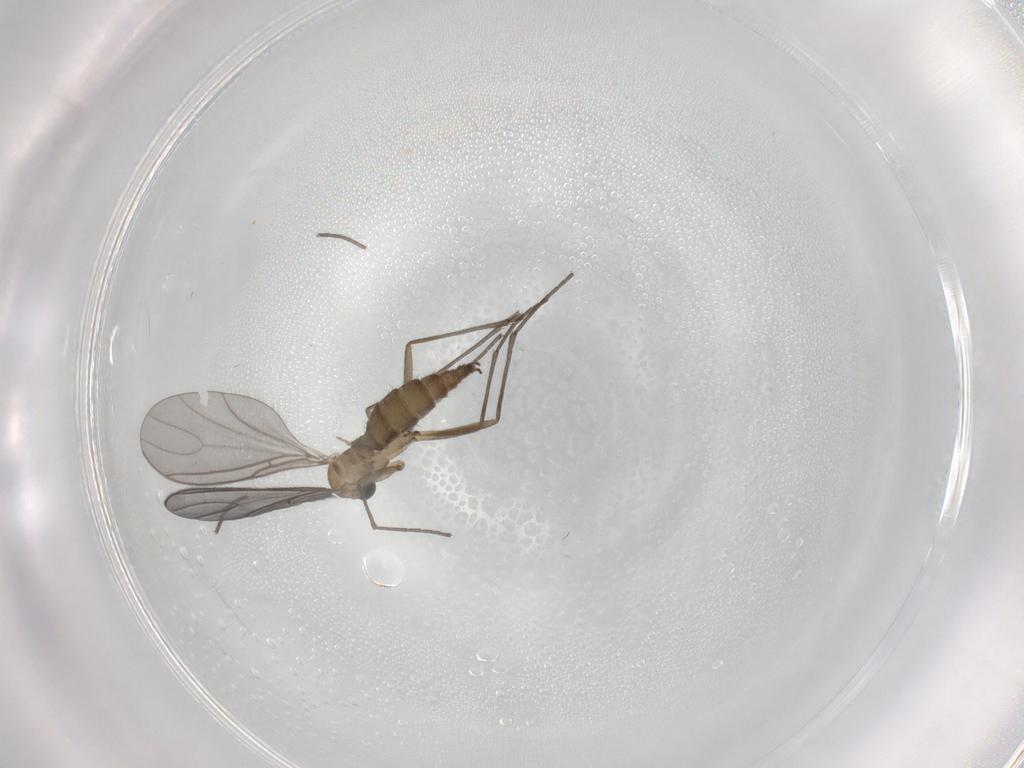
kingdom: Animalia
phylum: Arthropoda
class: Insecta
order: Diptera
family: Sciaridae
